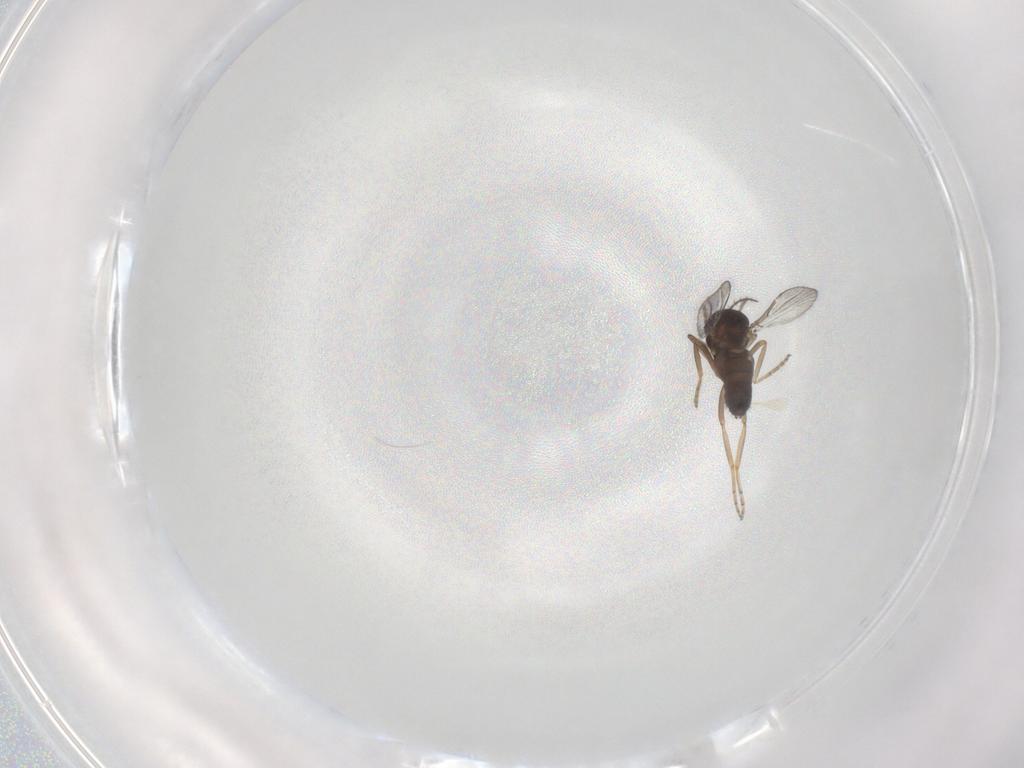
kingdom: Animalia
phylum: Arthropoda
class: Insecta
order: Diptera
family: Ceratopogonidae
